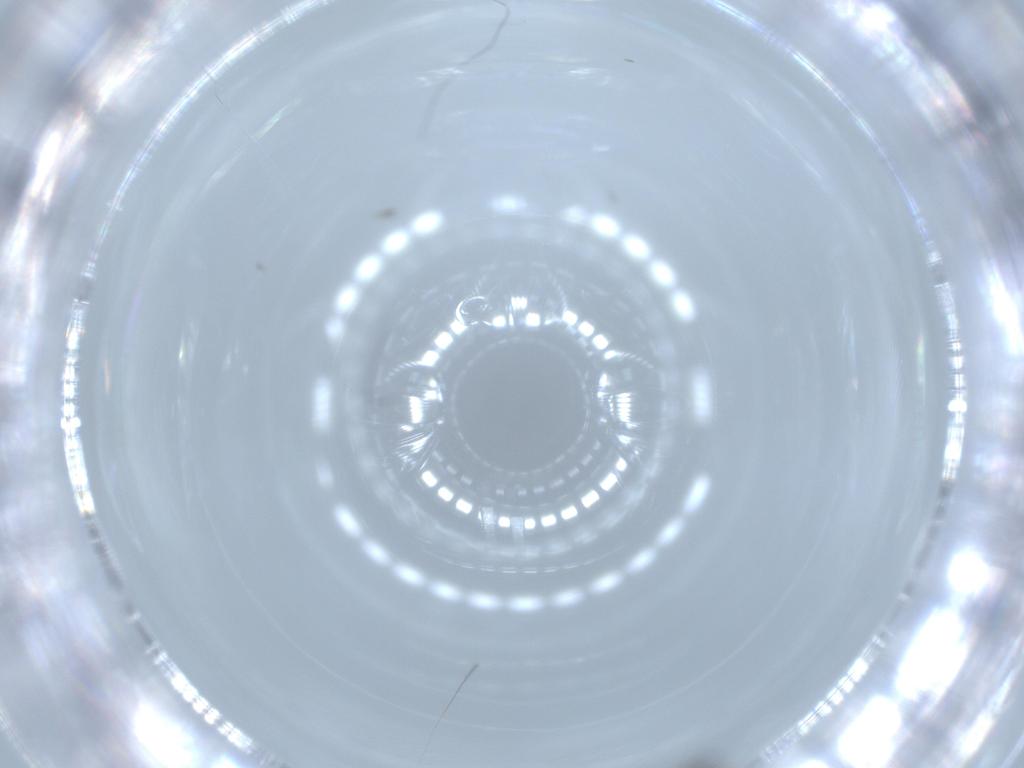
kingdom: Animalia
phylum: Arthropoda
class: Insecta
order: Hymenoptera
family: Scelionidae
